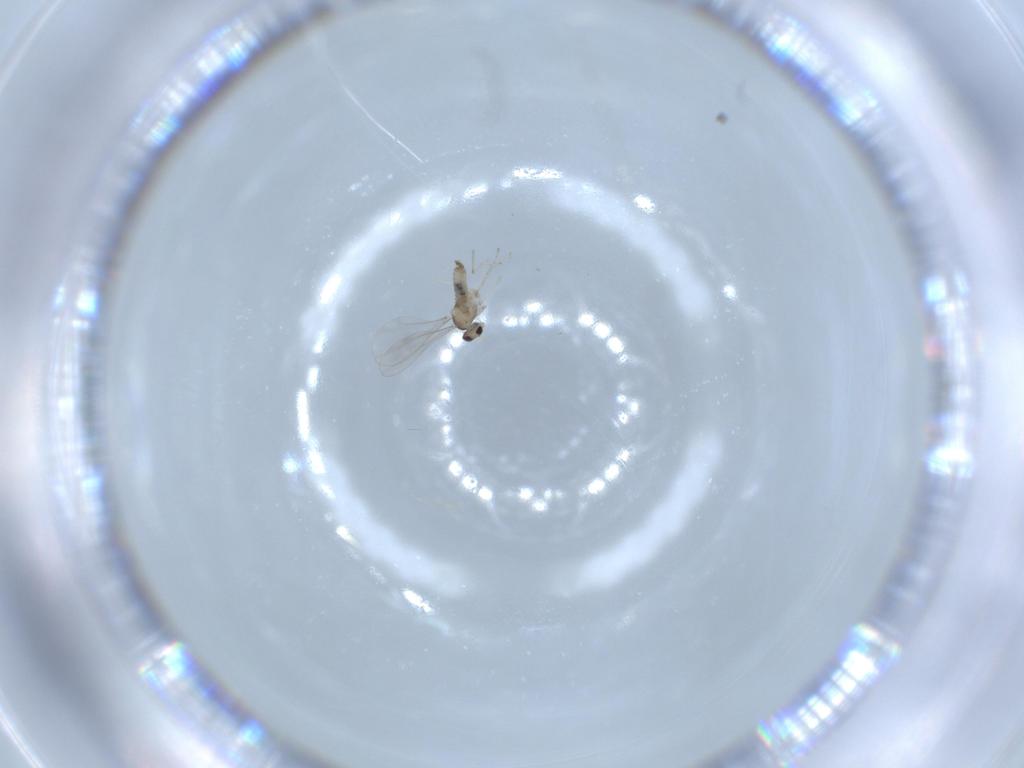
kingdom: Animalia
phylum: Arthropoda
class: Insecta
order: Diptera
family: Cecidomyiidae
